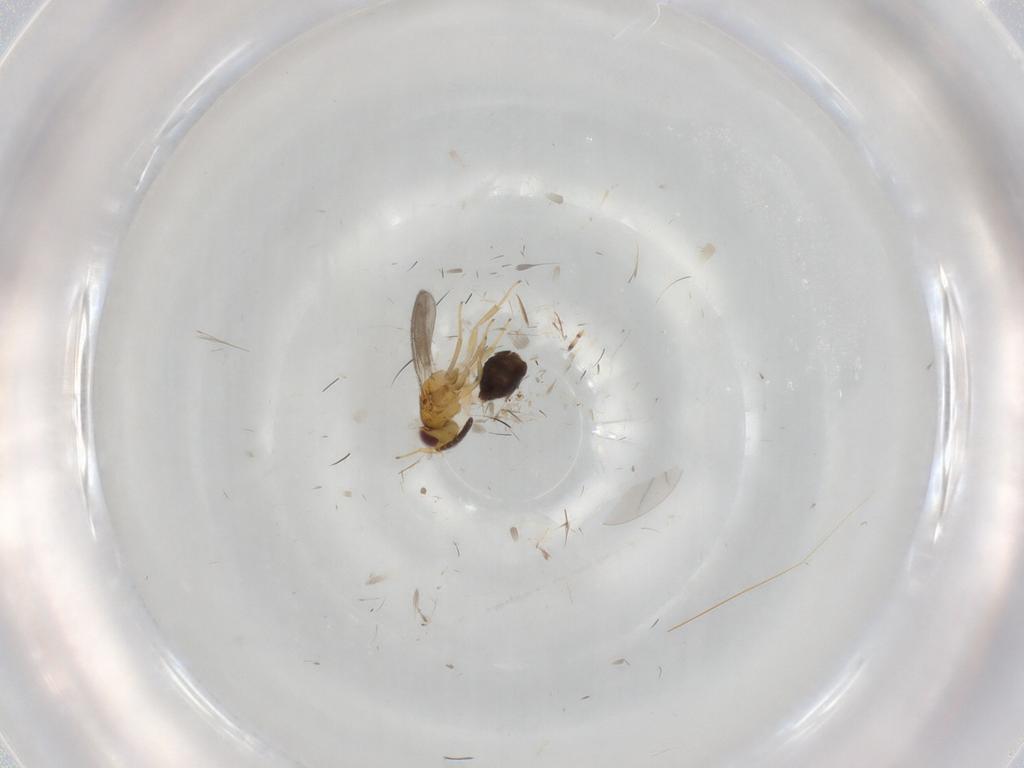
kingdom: Animalia
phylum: Arthropoda
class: Insecta
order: Hymenoptera
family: Aphelinidae
